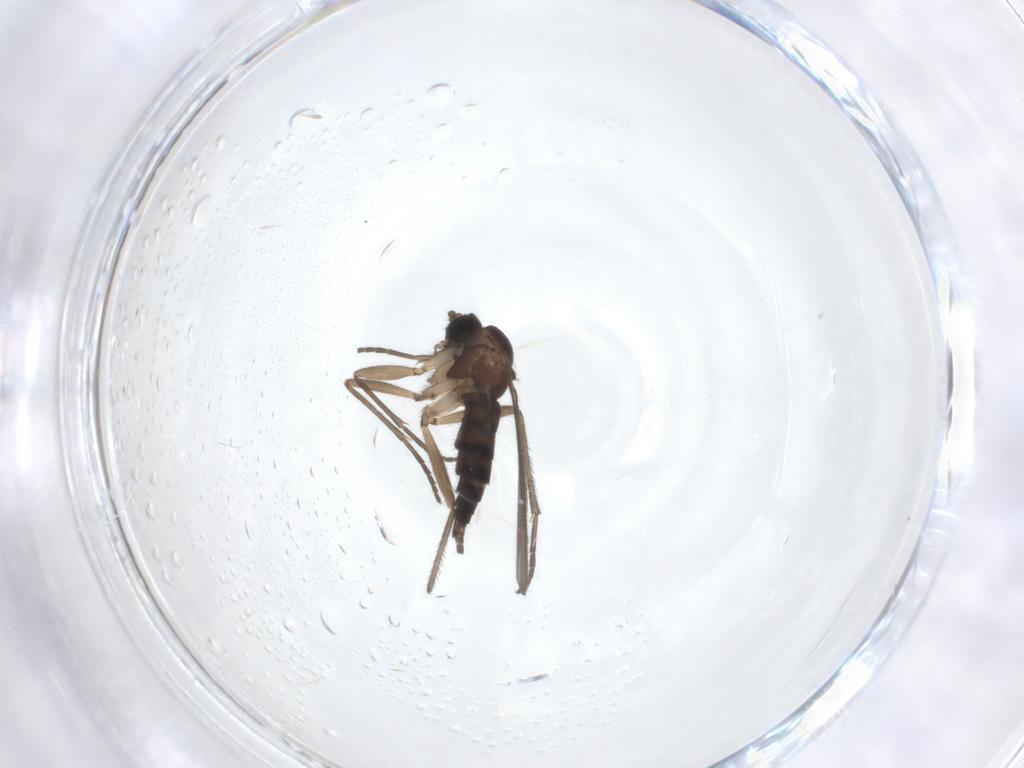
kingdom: Animalia
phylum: Arthropoda
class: Insecta
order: Diptera
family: Sciaridae
